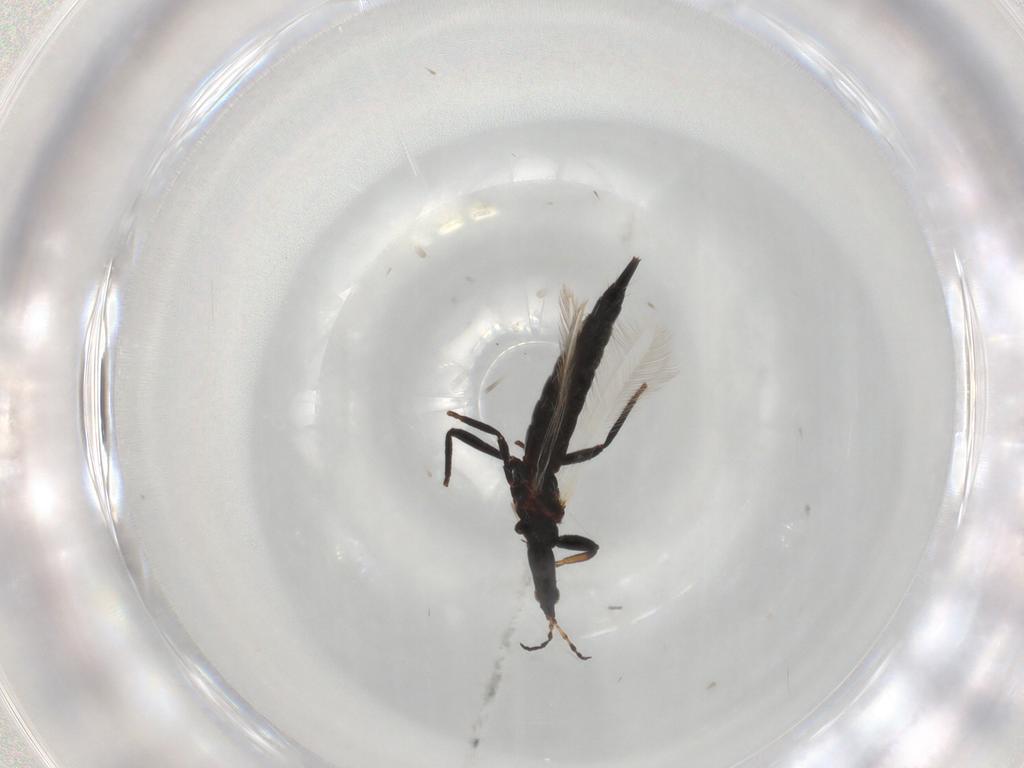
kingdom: Animalia
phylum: Arthropoda
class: Insecta
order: Thysanoptera
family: Phlaeothripidae
